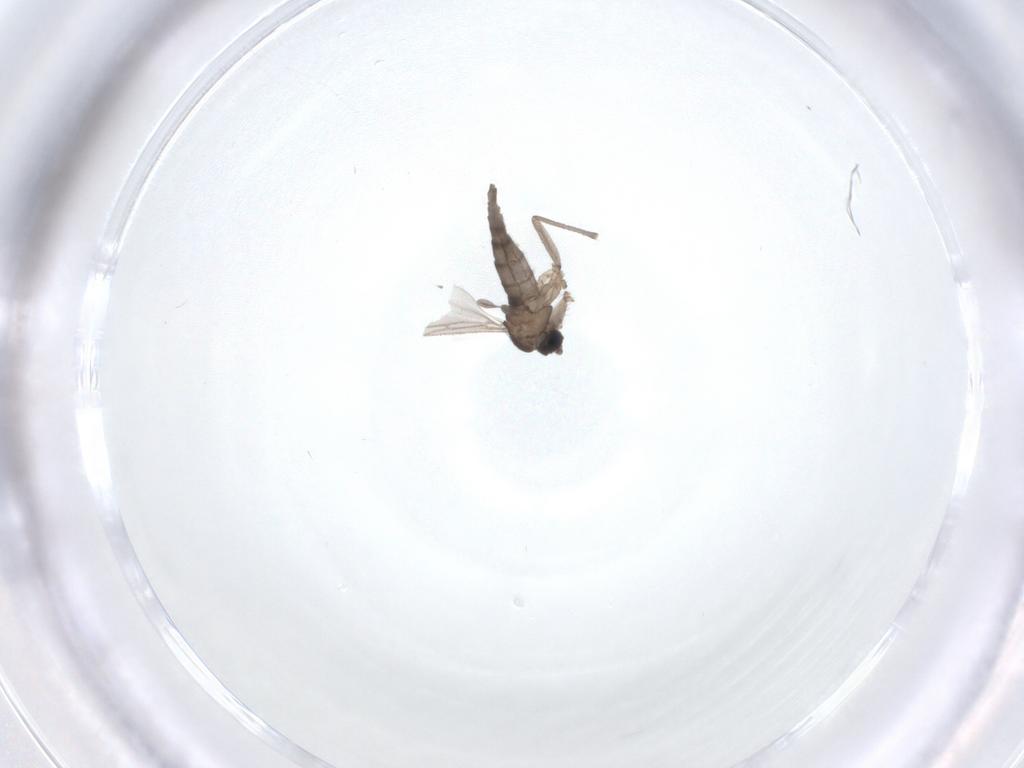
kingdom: Animalia
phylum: Arthropoda
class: Insecta
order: Diptera
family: Sciaridae
